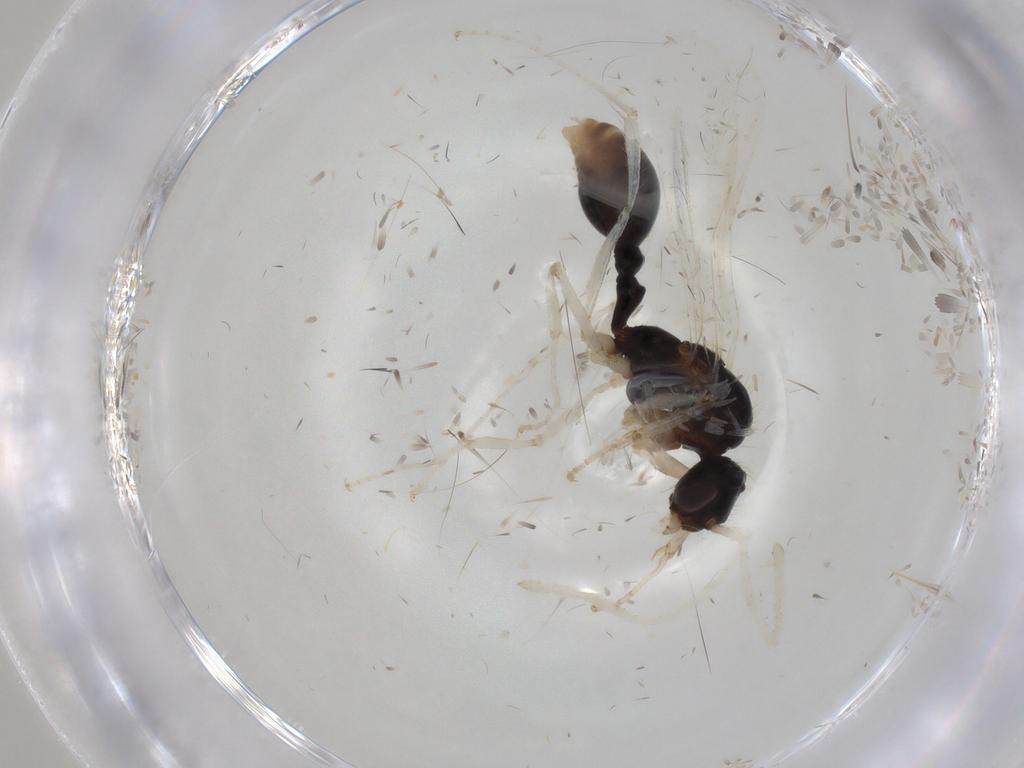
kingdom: Animalia
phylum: Arthropoda
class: Insecta
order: Hymenoptera
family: Formicidae
